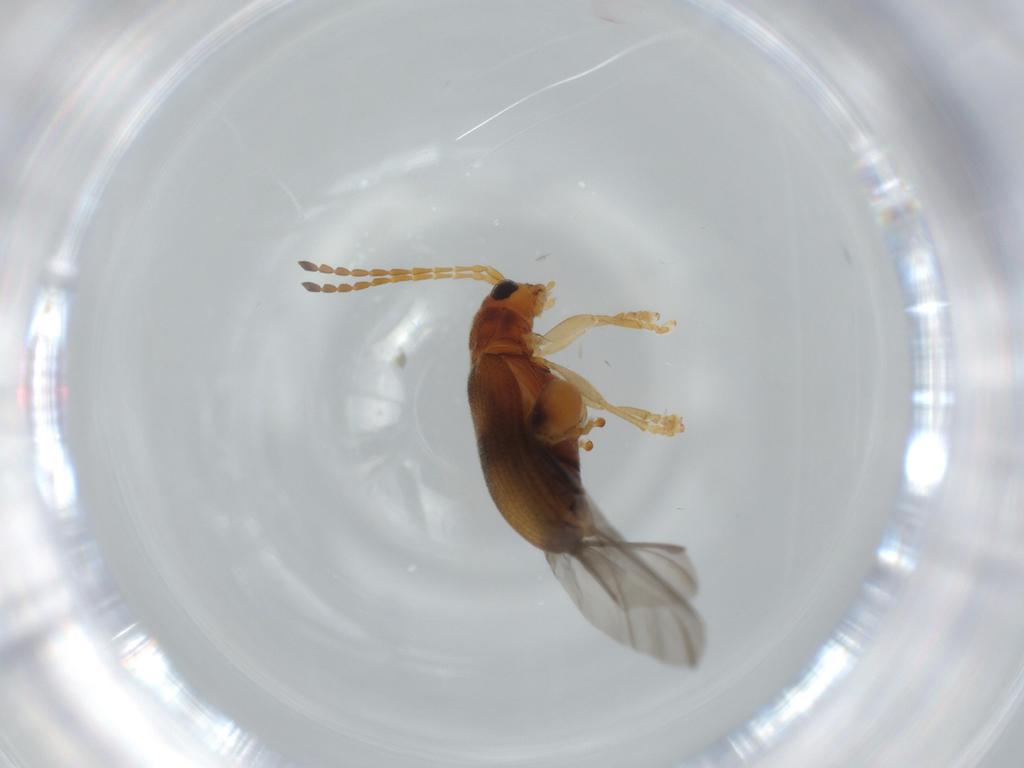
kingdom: Animalia
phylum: Arthropoda
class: Insecta
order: Coleoptera
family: Chrysomelidae
